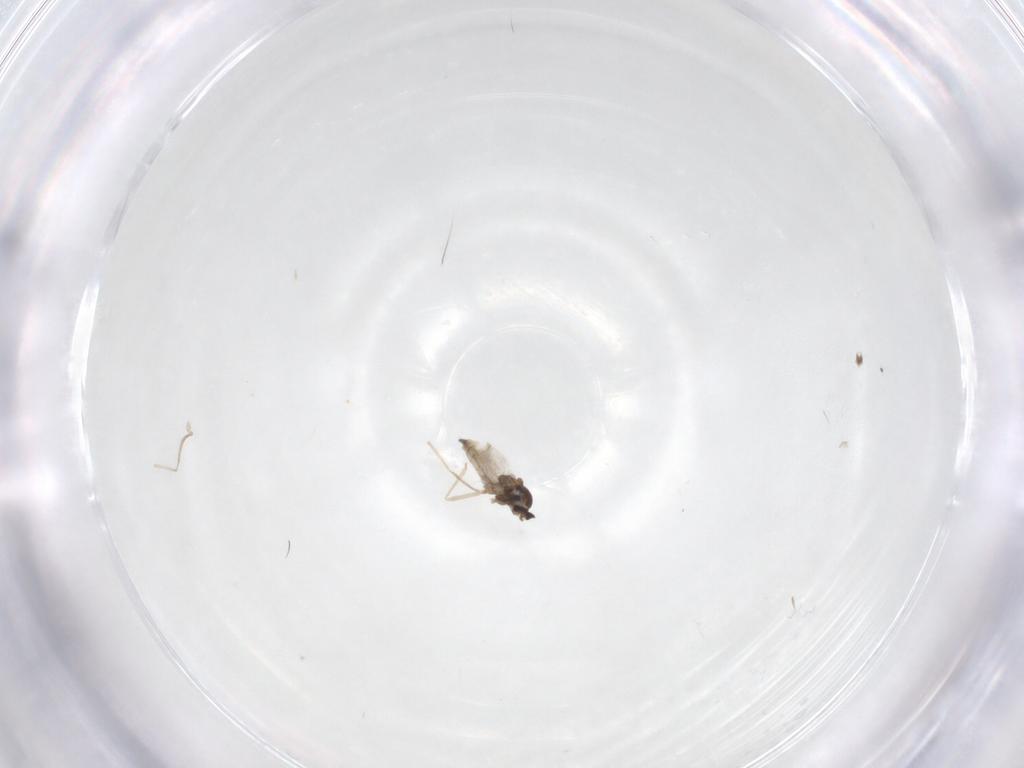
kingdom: Animalia
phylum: Arthropoda
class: Insecta
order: Diptera
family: Cecidomyiidae
